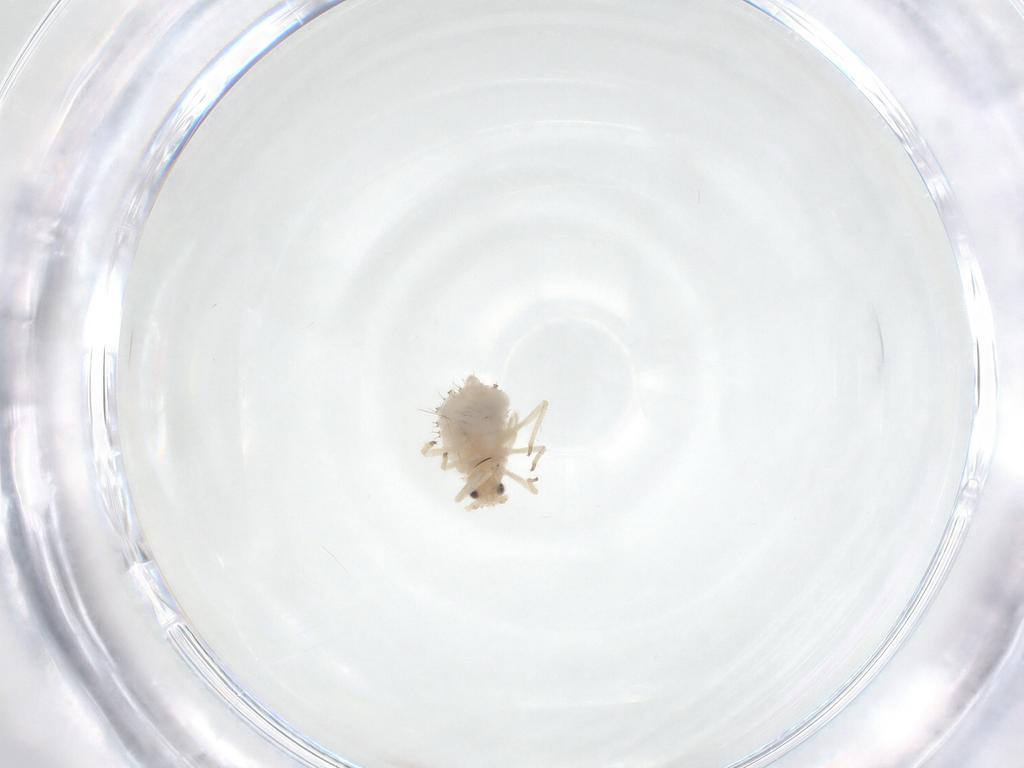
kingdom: Animalia
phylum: Arthropoda
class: Insecta
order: Hemiptera
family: Aphididae
